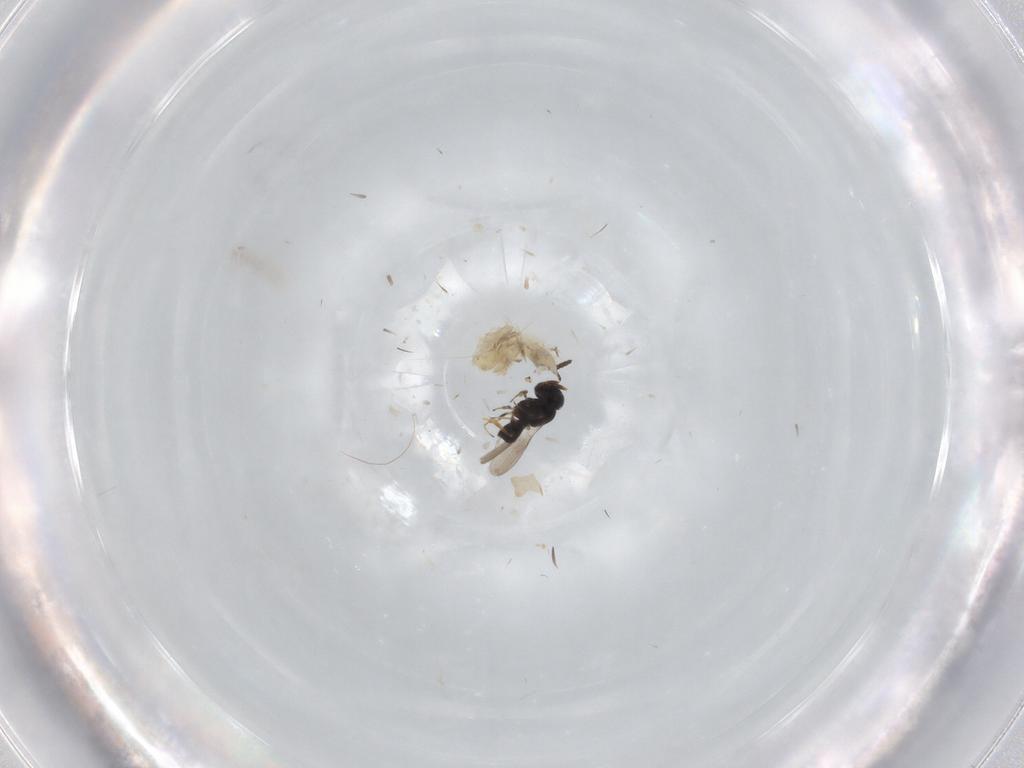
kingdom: Animalia
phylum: Arthropoda
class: Insecta
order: Hymenoptera
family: Scelionidae
